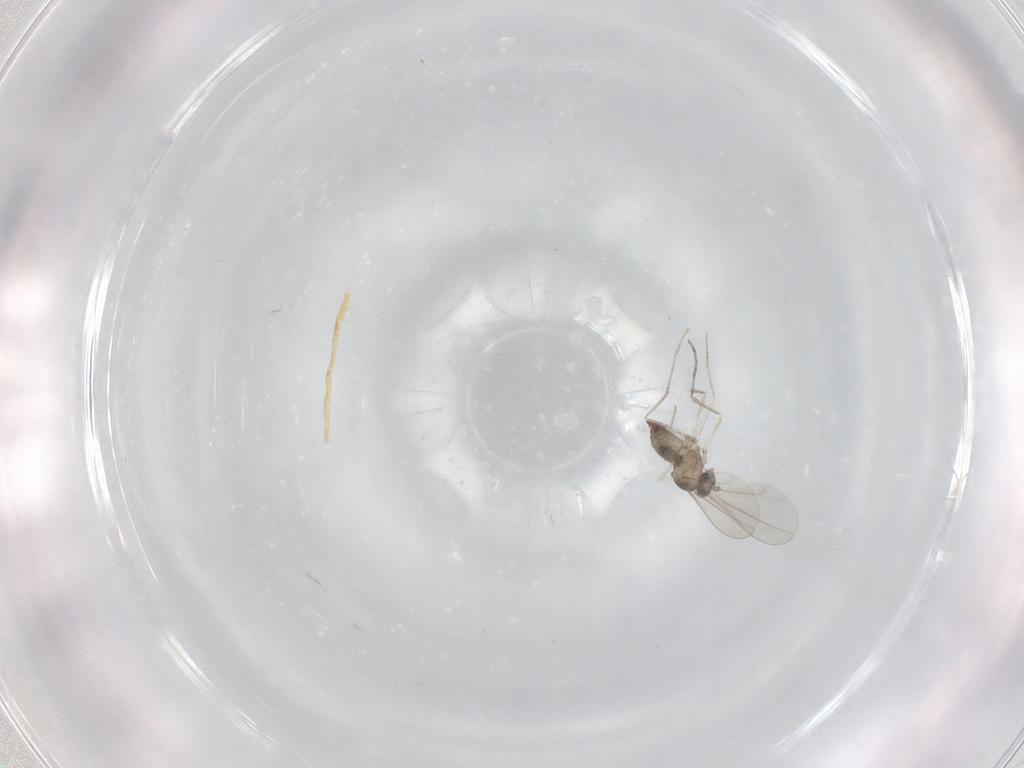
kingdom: Animalia
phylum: Arthropoda
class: Insecta
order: Diptera
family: Cecidomyiidae
